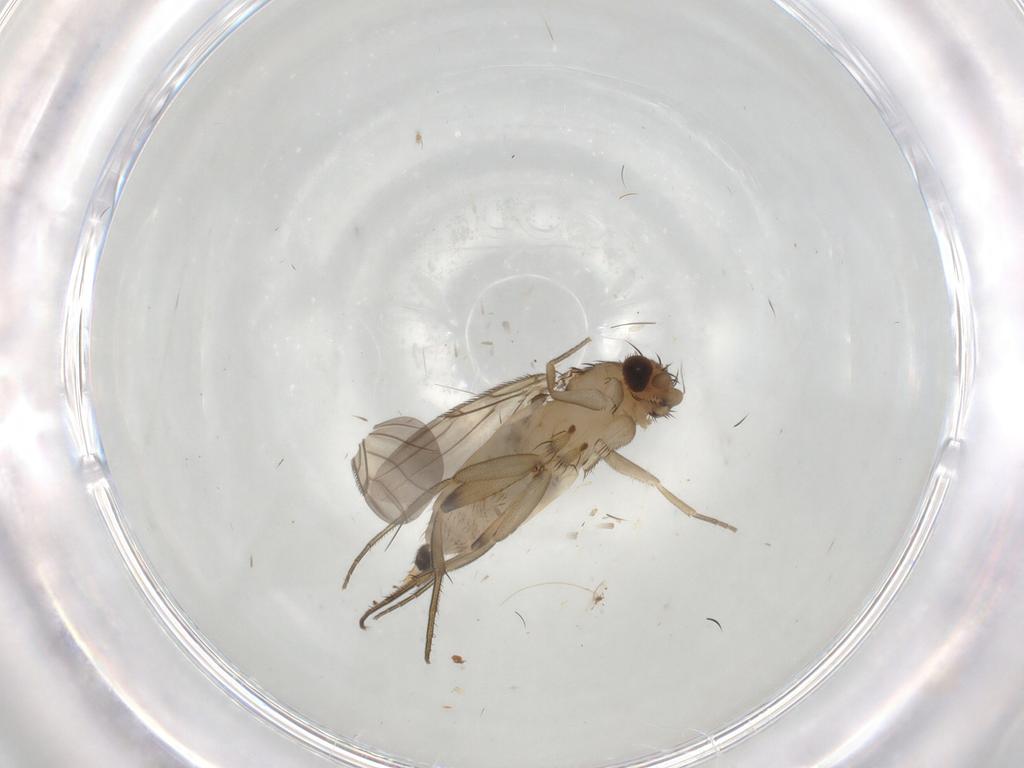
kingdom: Animalia
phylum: Arthropoda
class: Insecta
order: Diptera
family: Phoridae
